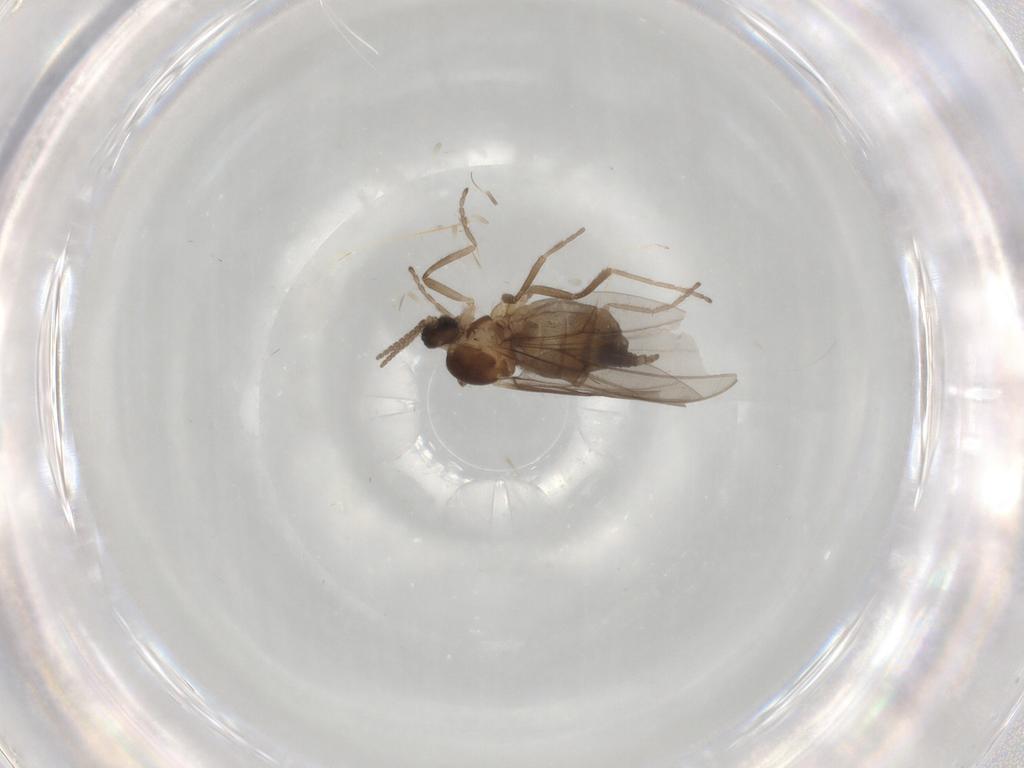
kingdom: Animalia
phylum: Arthropoda
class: Insecta
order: Diptera
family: Cecidomyiidae
